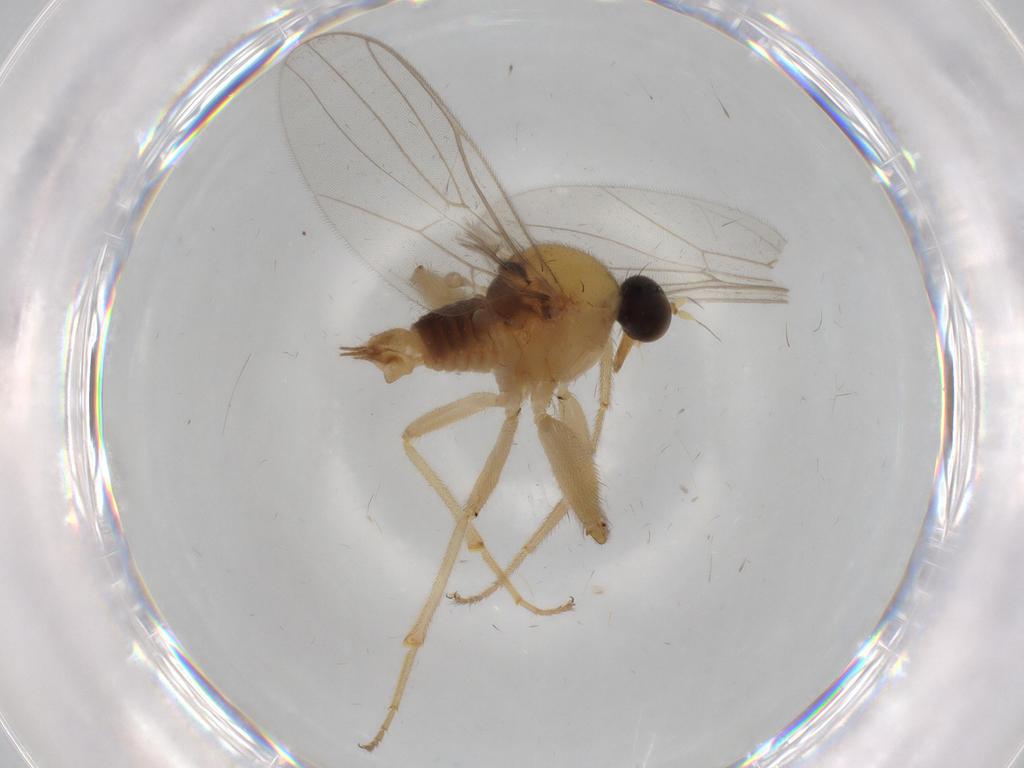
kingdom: Animalia
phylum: Arthropoda
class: Insecta
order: Diptera
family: Hybotidae
